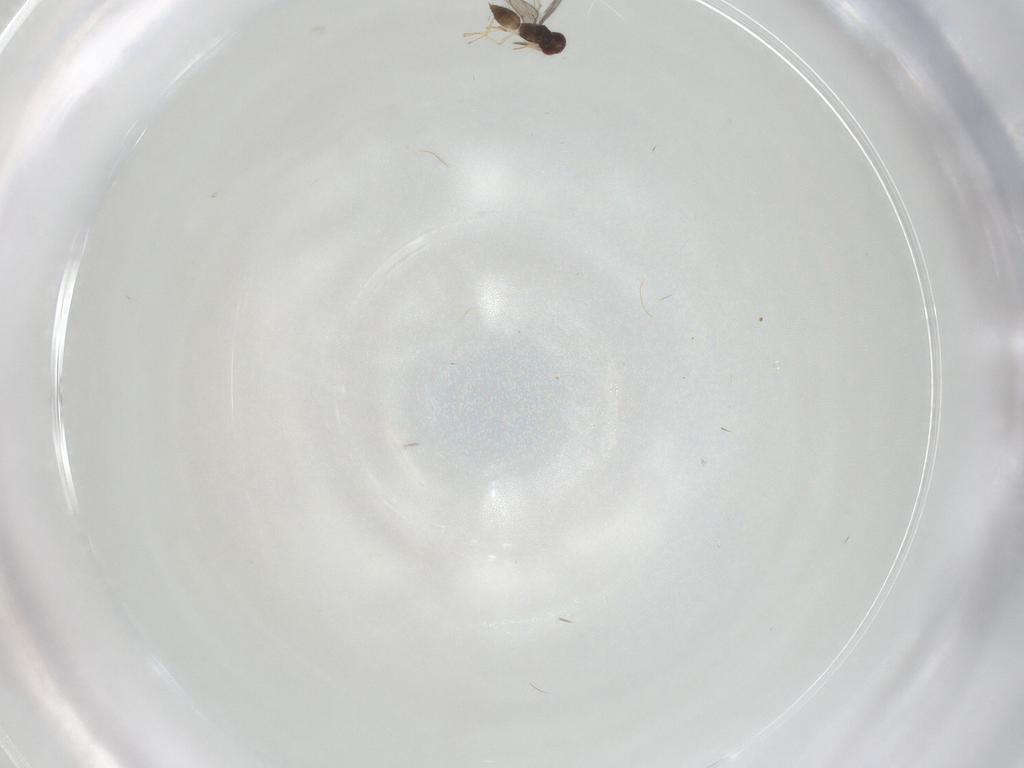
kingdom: Animalia
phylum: Arthropoda
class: Insecta
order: Hymenoptera
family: Eulophidae
